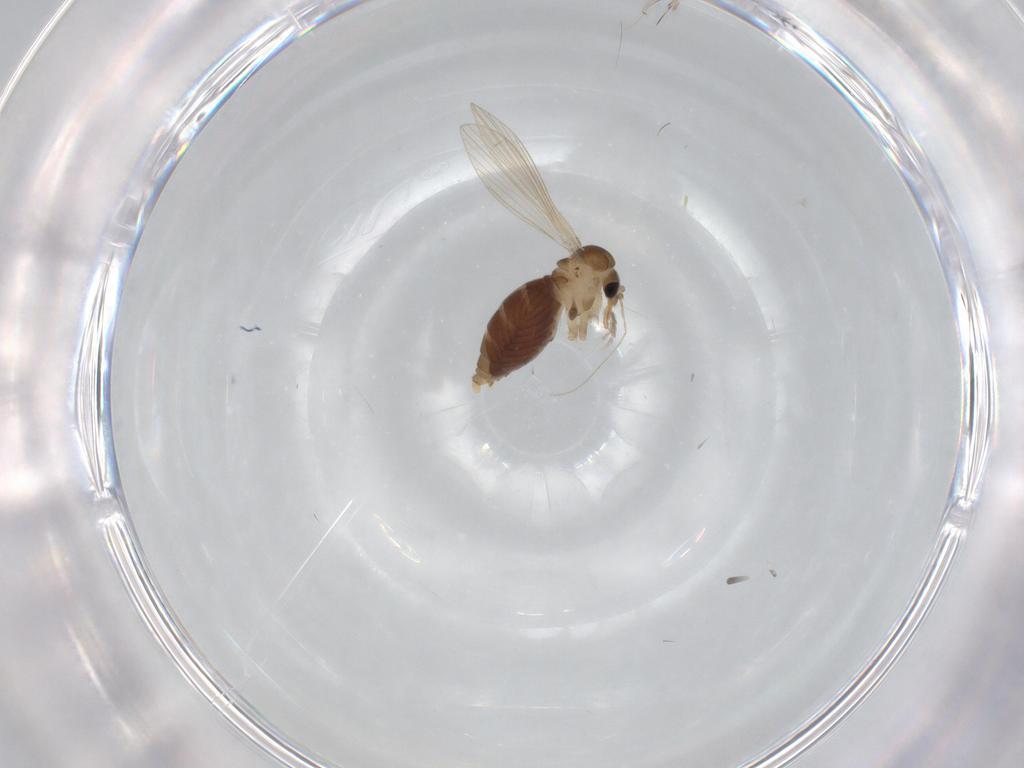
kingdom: Animalia
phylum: Arthropoda
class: Insecta
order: Diptera
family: Psychodidae
